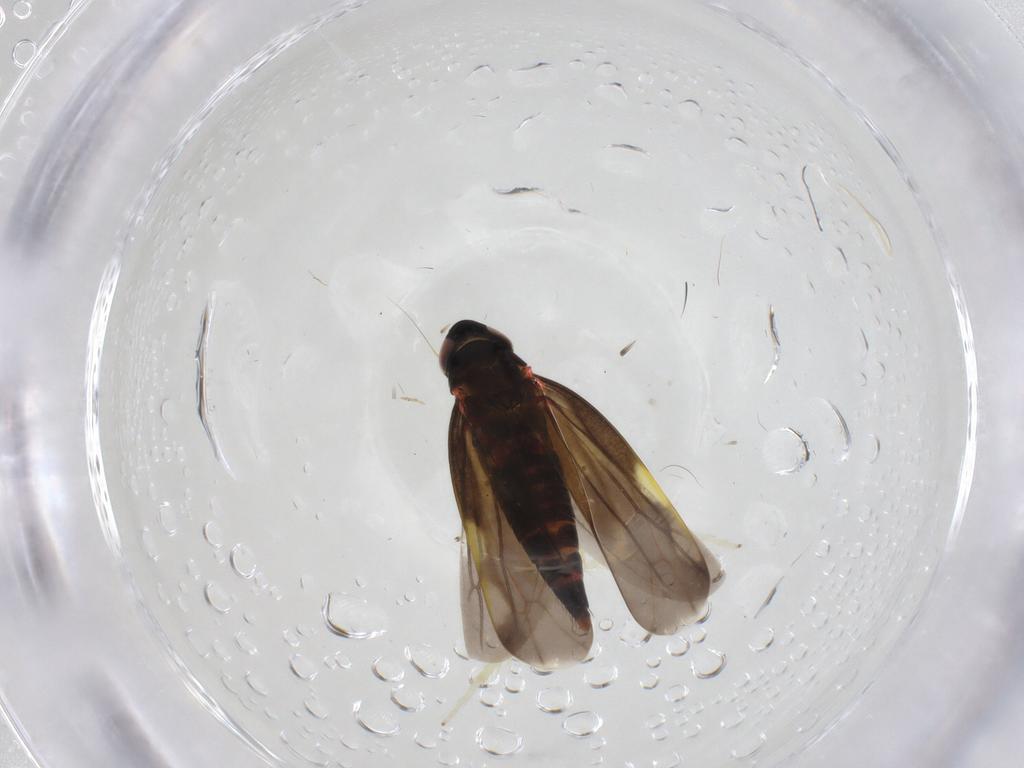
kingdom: Animalia
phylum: Arthropoda
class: Insecta
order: Hemiptera
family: Cicadellidae
